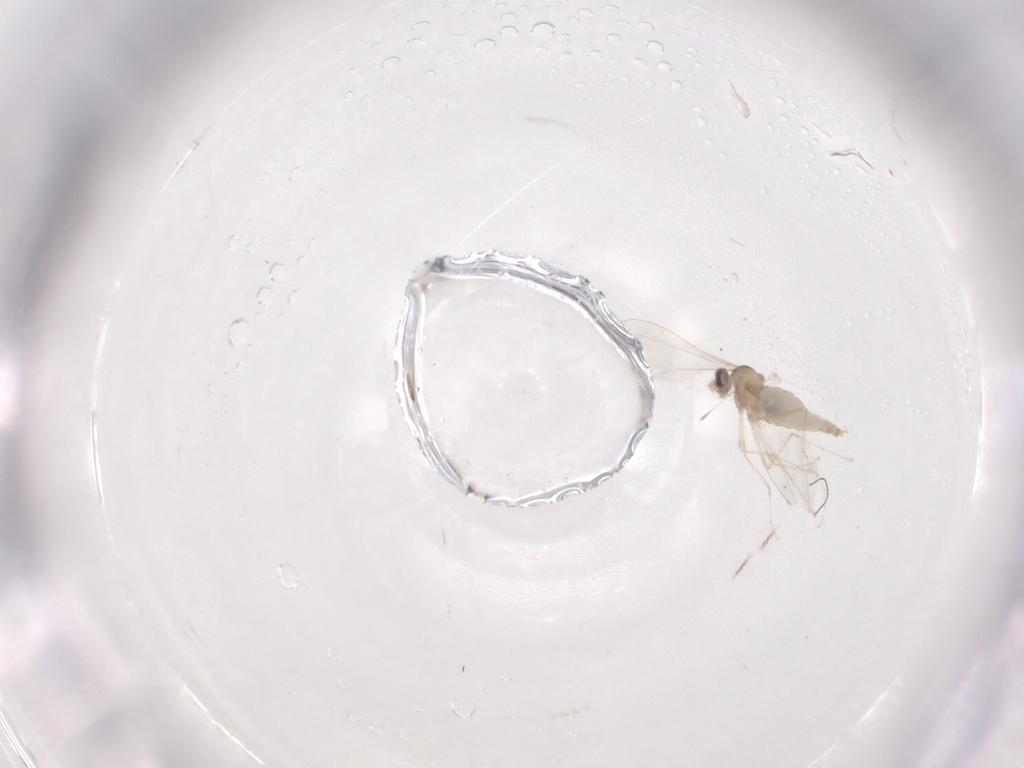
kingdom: Animalia
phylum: Arthropoda
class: Insecta
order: Diptera
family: Cecidomyiidae
